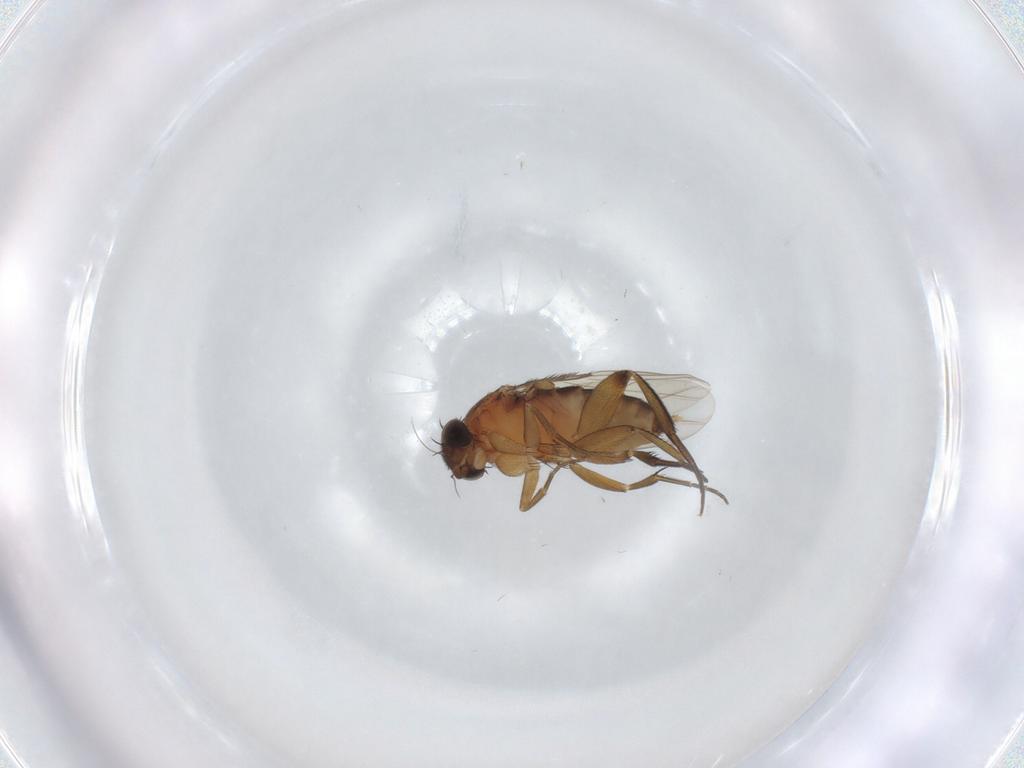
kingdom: Animalia
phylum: Arthropoda
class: Insecta
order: Diptera
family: Phoridae
